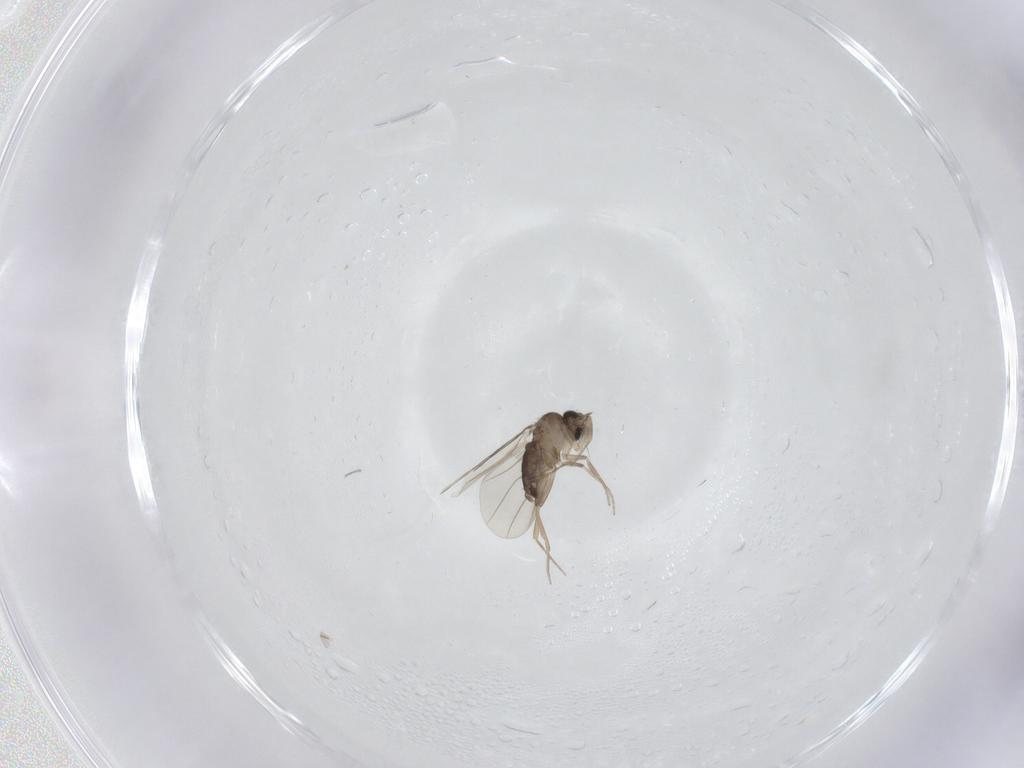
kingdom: Animalia
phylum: Arthropoda
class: Insecta
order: Diptera
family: Phoridae
